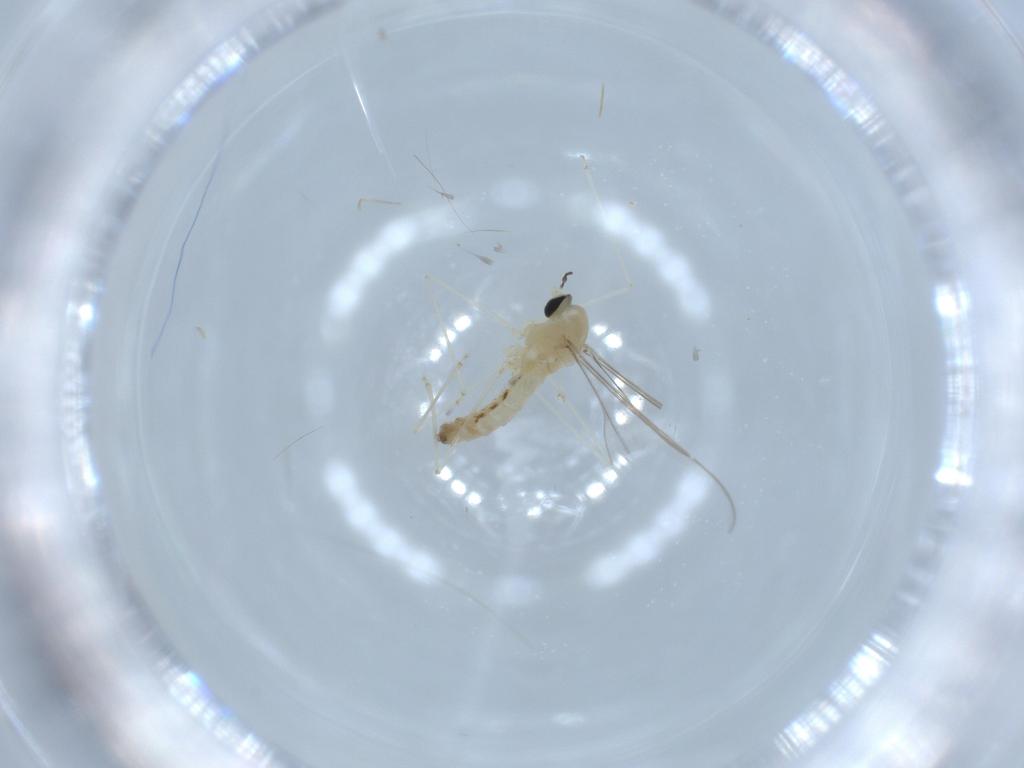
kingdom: Animalia
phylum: Arthropoda
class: Insecta
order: Diptera
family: Cecidomyiidae
